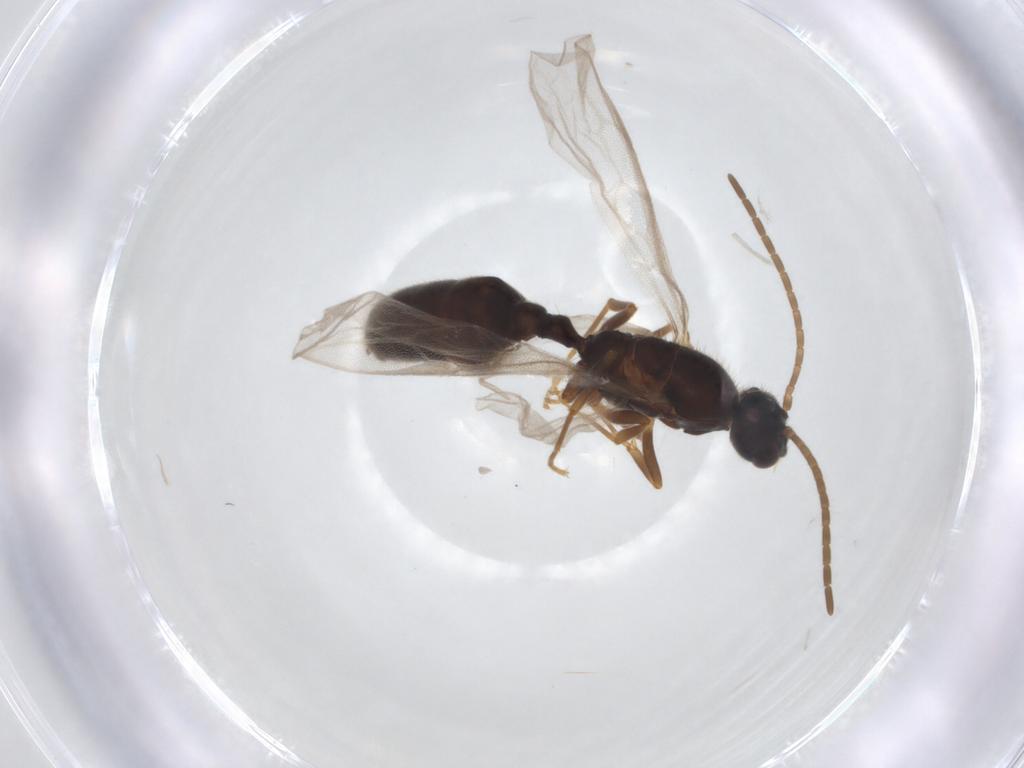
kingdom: Animalia
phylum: Arthropoda
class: Insecta
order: Hymenoptera
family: Formicidae
